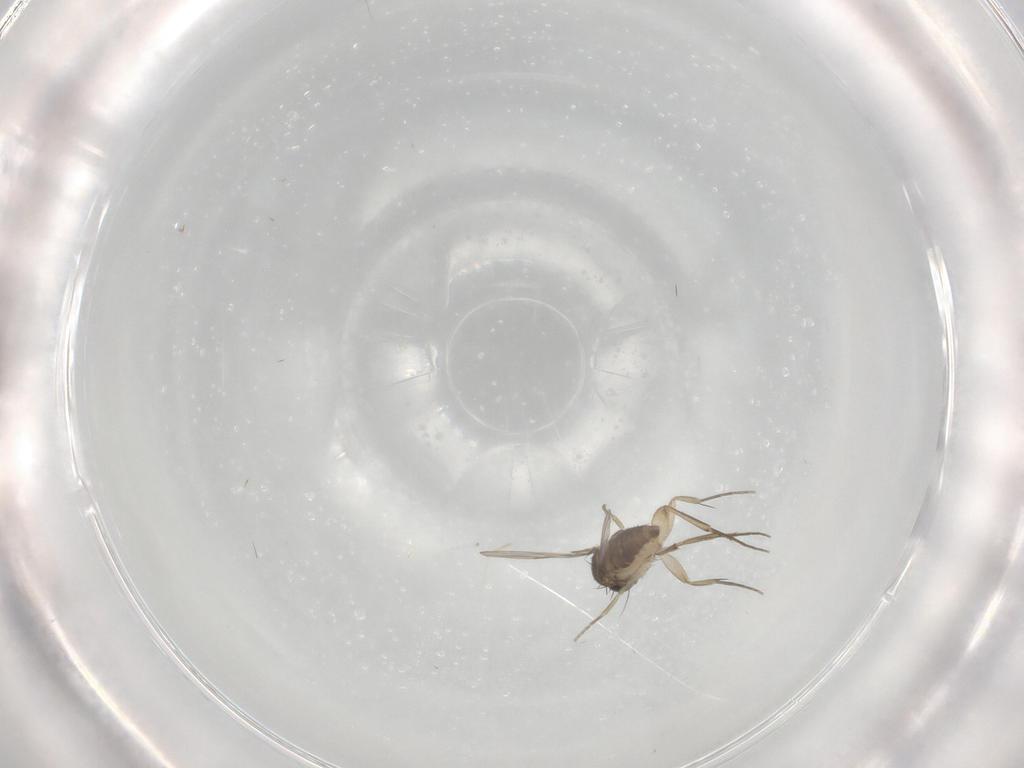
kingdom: Animalia
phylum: Arthropoda
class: Insecta
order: Diptera
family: Phoridae
